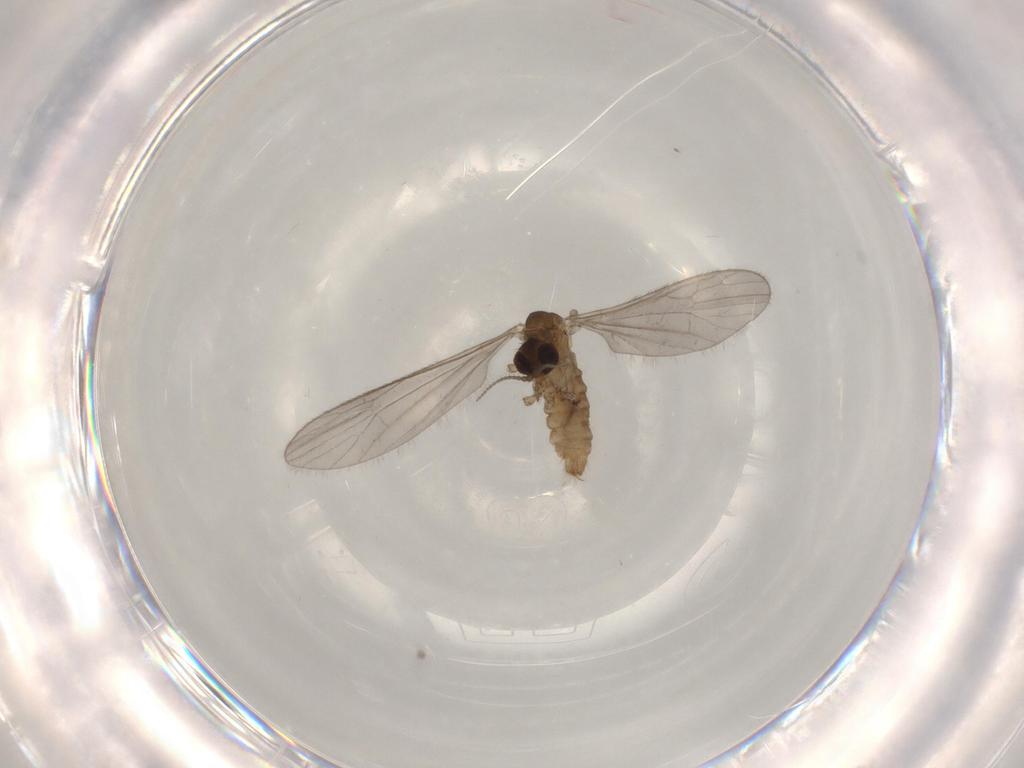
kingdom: Animalia
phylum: Arthropoda
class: Insecta
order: Diptera
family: Limoniidae
